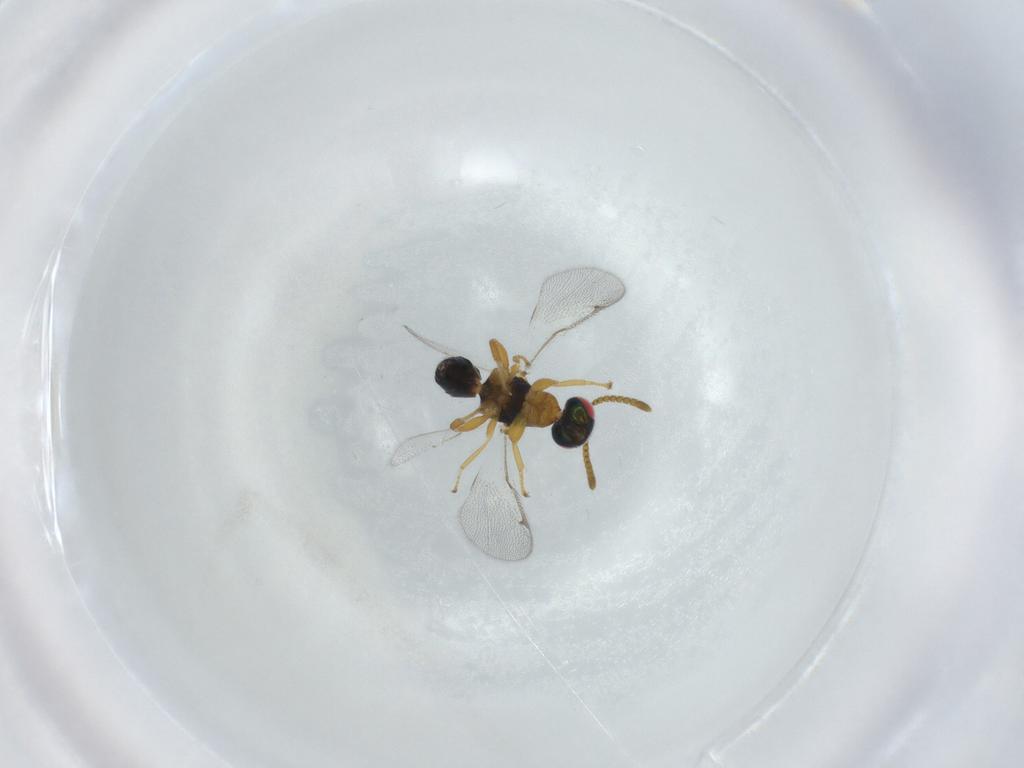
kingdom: Animalia
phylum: Arthropoda
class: Insecta
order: Hymenoptera
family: Torymidae
